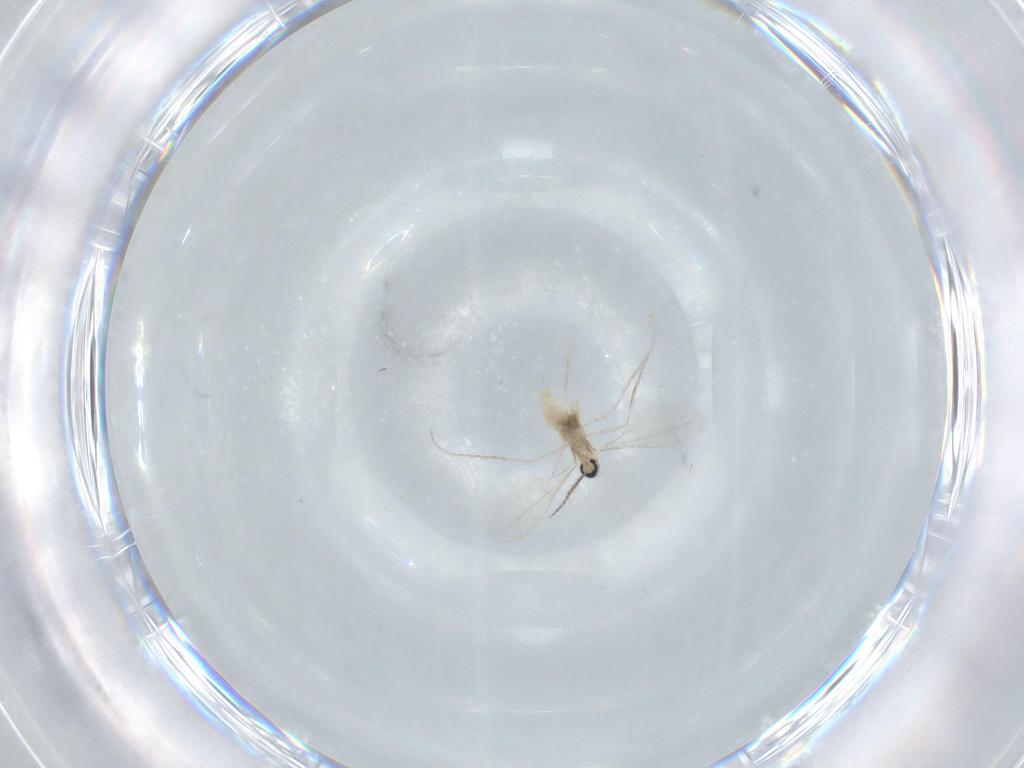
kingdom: Animalia
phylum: Arthropoda
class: Insecta
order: Diptera
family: Cecidomyiidae
